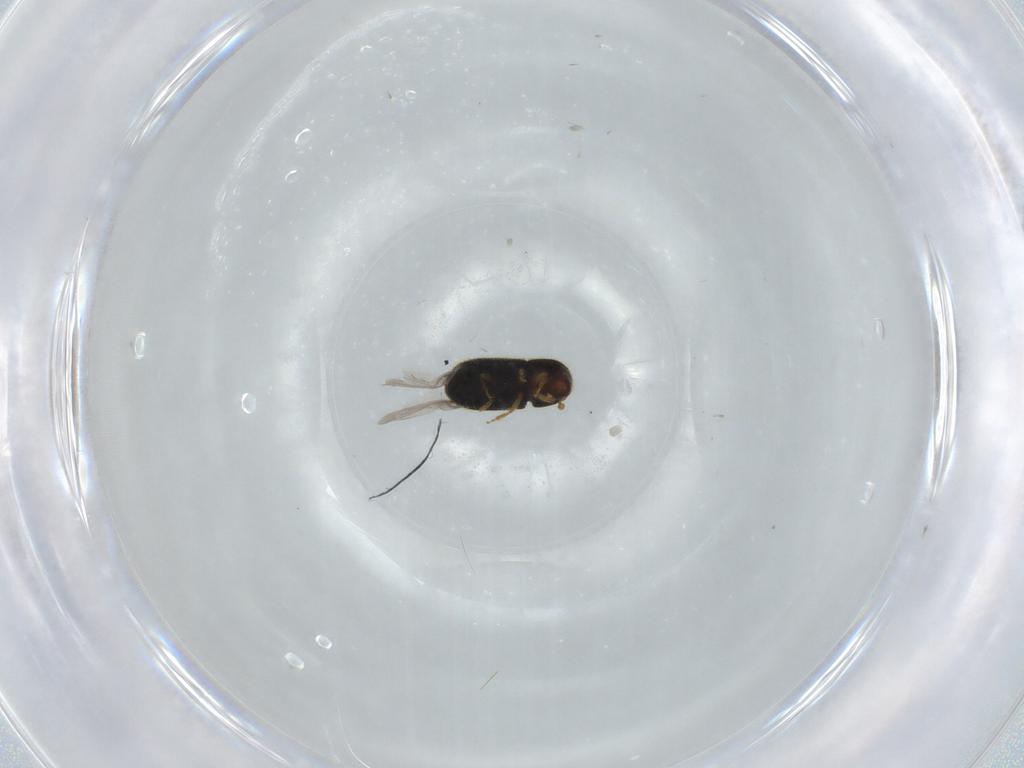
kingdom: Animalia
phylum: Arthropoda
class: Insecta
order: Coleoptera
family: Curculionidae
